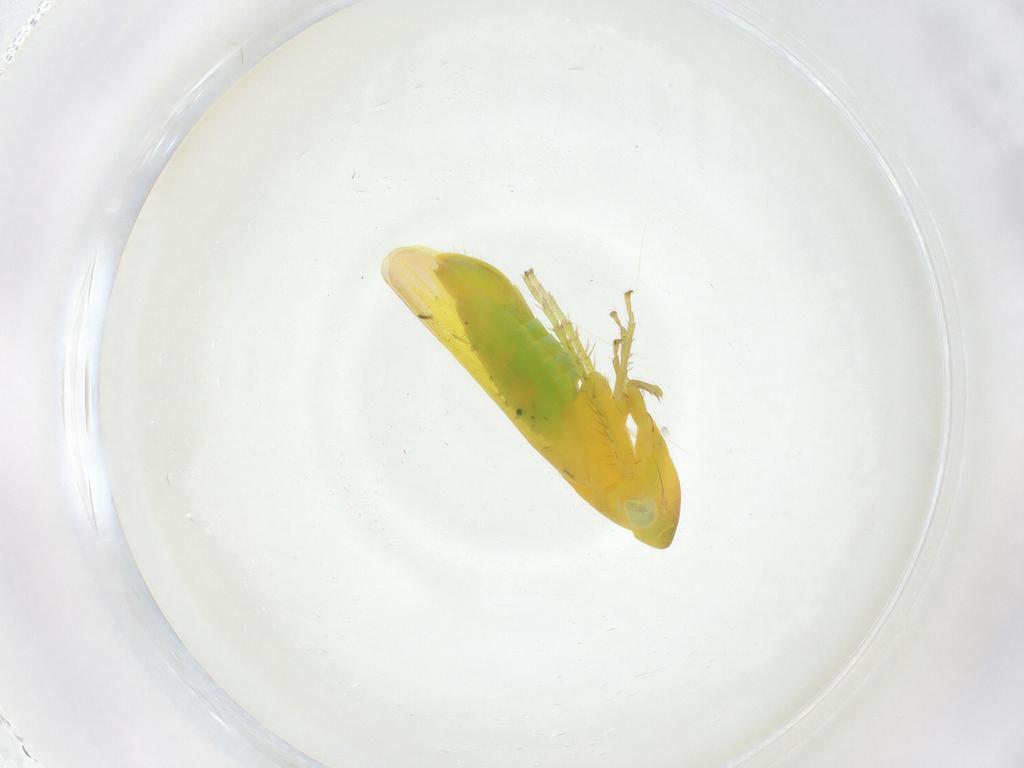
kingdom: Animalia
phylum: Arthropoda
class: Insecta
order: Hemiptera
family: Cicadellidae
